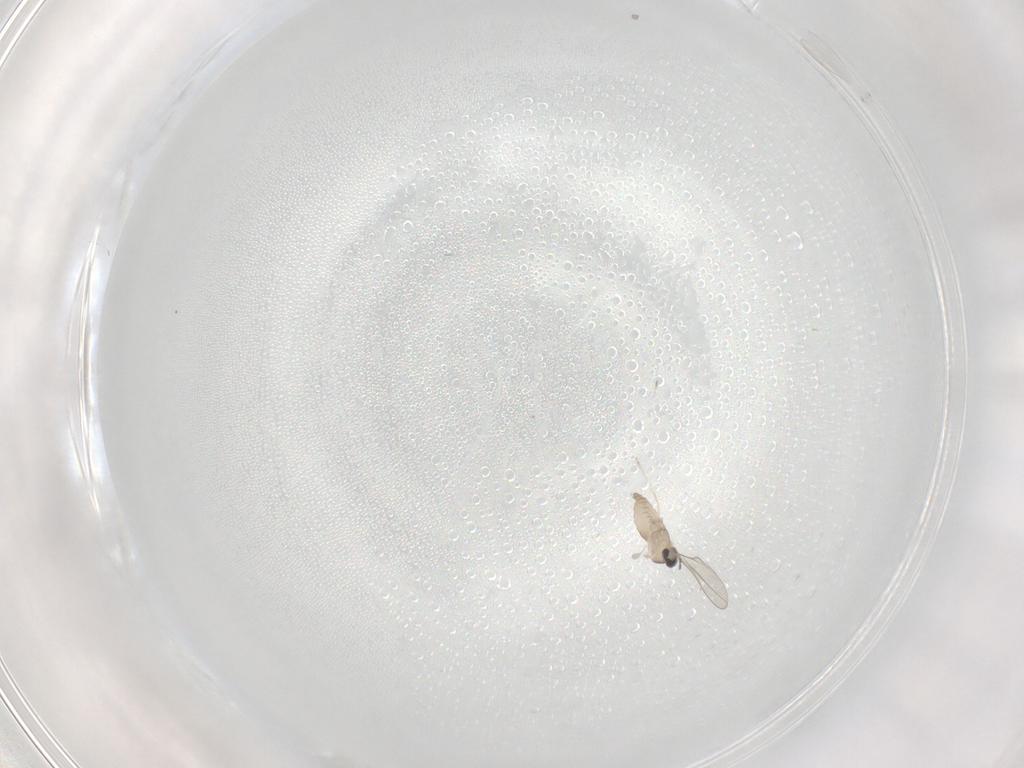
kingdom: Animalia
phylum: Arthropoda
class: Insecta
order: Diptera
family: Cecidomyiidae
